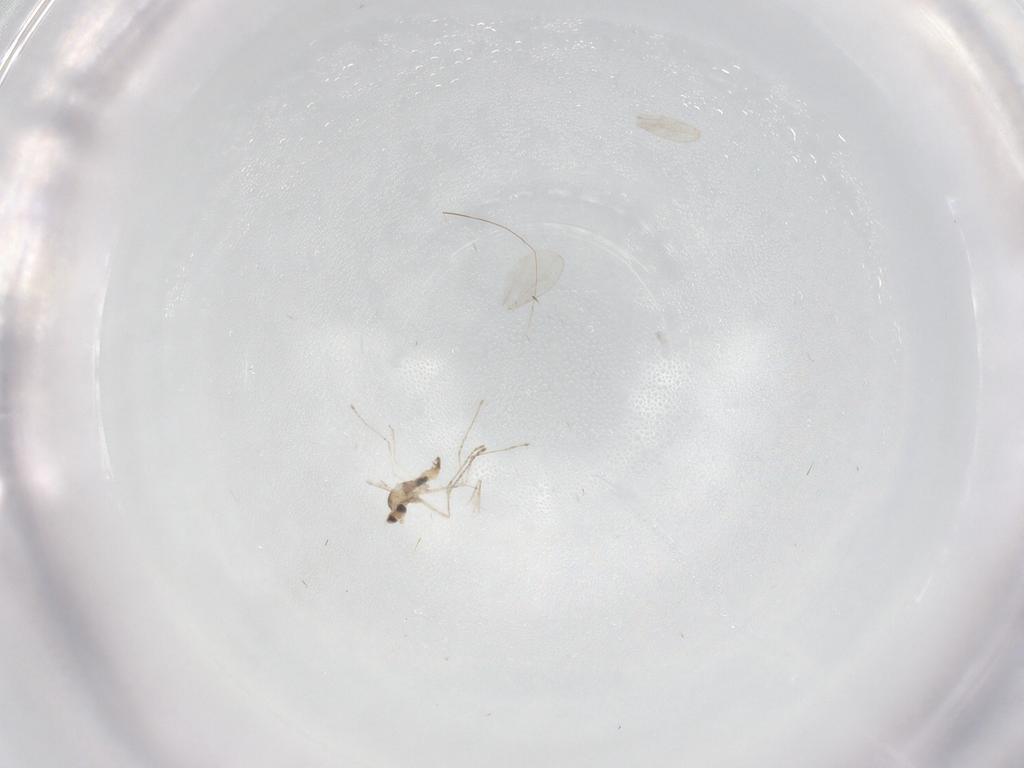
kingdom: Animalia
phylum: Arthropoda
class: Insecta
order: Diptera
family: Cecidomyiidae
